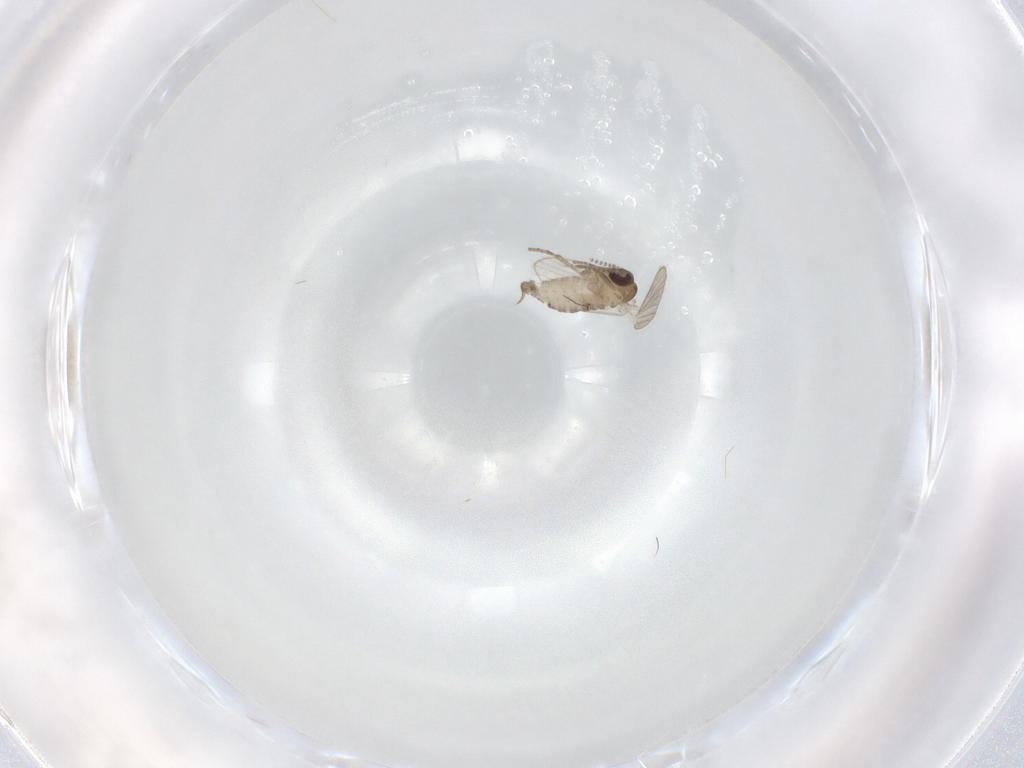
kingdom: Animalia
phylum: Arthropoda
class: Insecta
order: Diptera
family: Psychodidae
